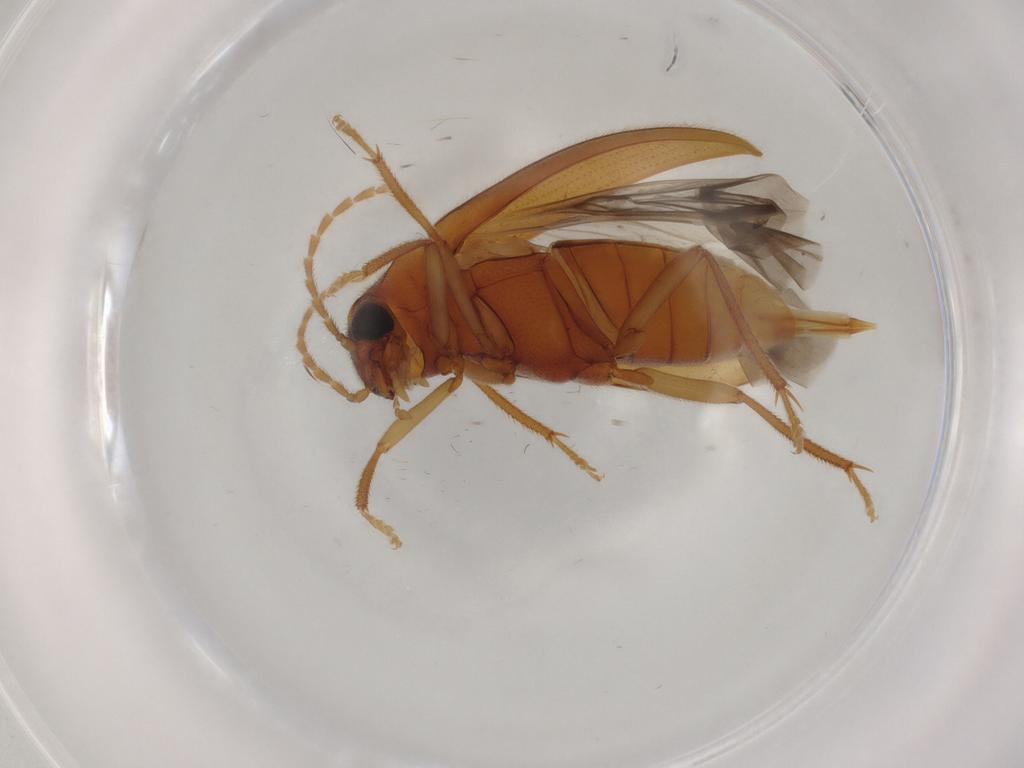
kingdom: Animalia
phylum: Arthropoda
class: Insecta
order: Coleoptera
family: Ptilodactylidae
